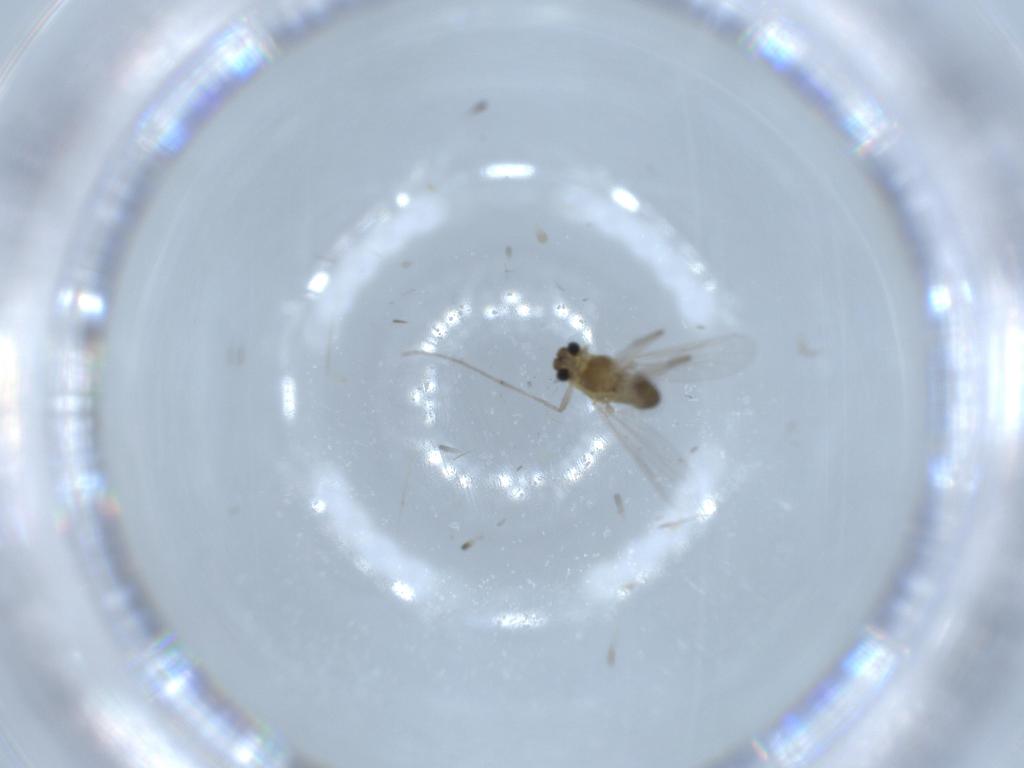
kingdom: Animalia
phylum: Arthropoda
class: Insecta
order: Diptera
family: Chironomidae
